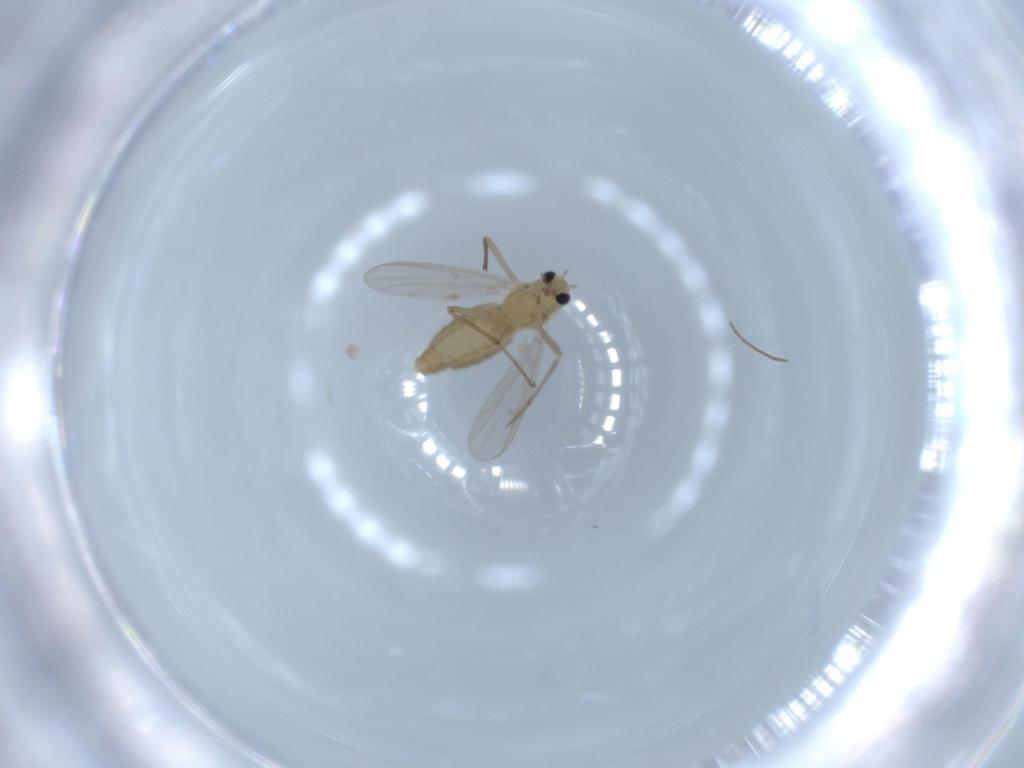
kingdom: Animalia
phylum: Arthropoda
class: Insecta
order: Diptera
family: Chironomidae
